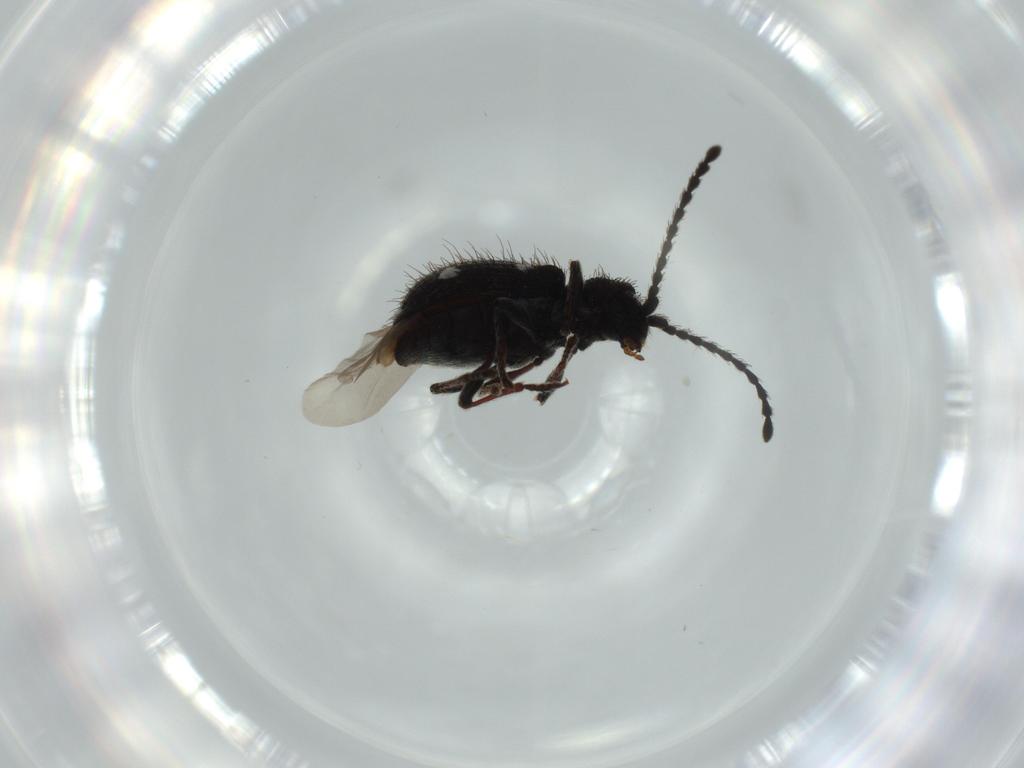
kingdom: Animalia
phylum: Arthropoda
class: Insecta
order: Coleoptera
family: Ptinidae
